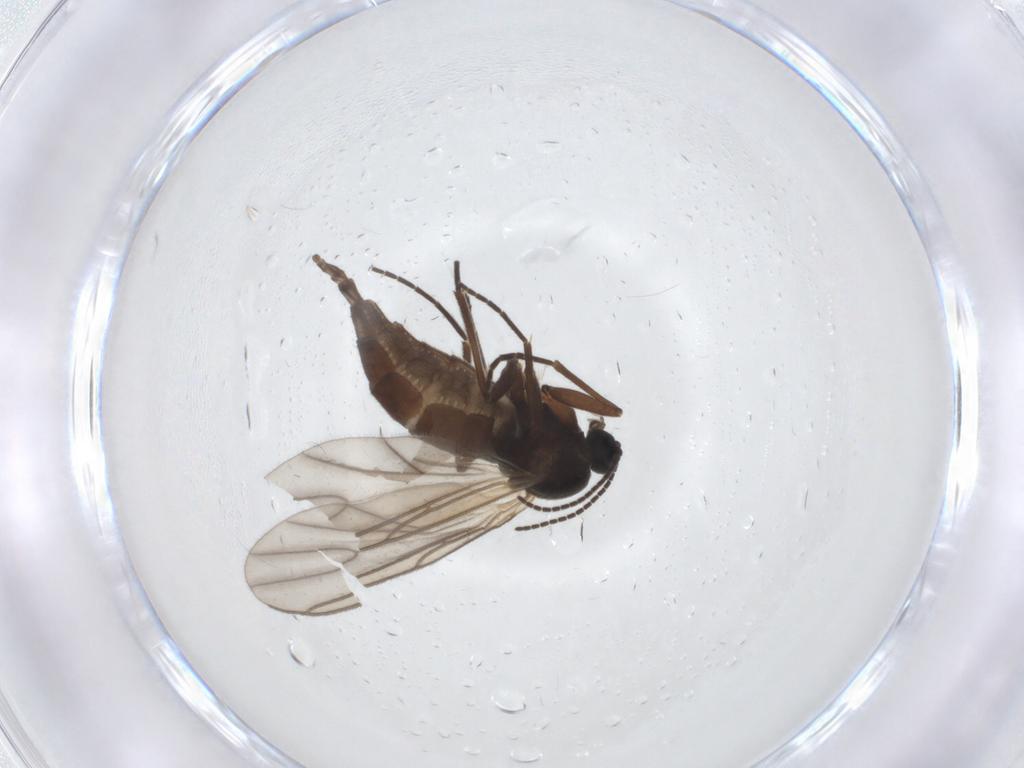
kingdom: Animalia
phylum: Arthropoda
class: Insecta
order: Diptera
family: Sciaridae
